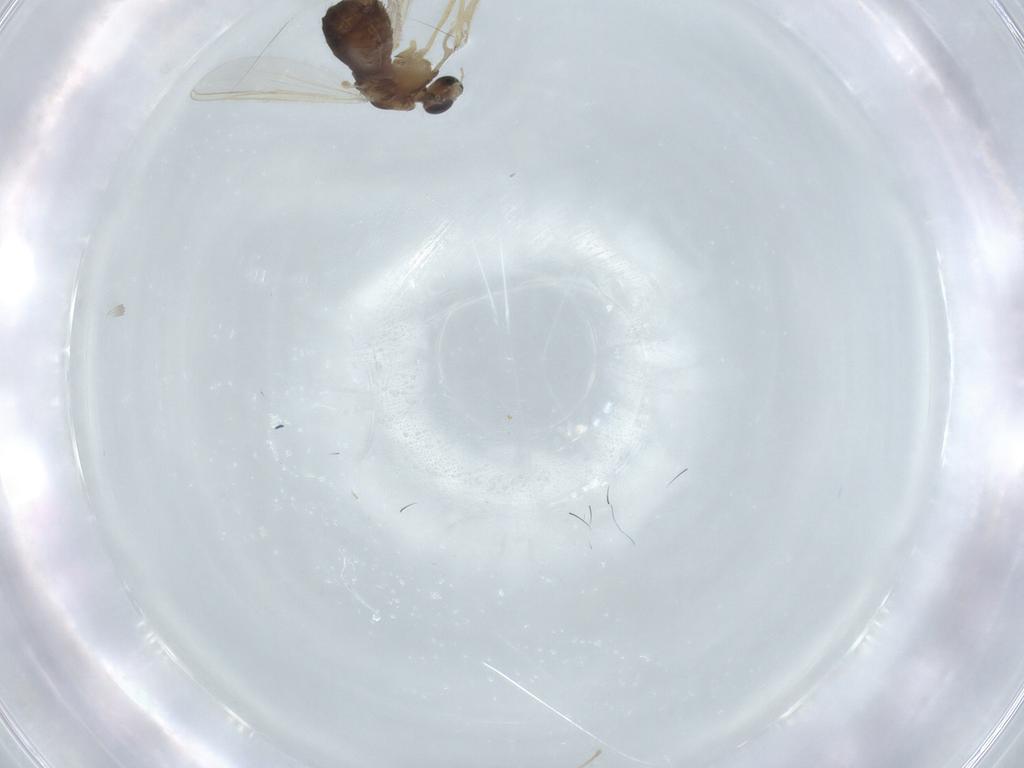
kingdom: Animalia
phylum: Arthropoda
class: Insecta
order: Diptera
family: Chironomidae
